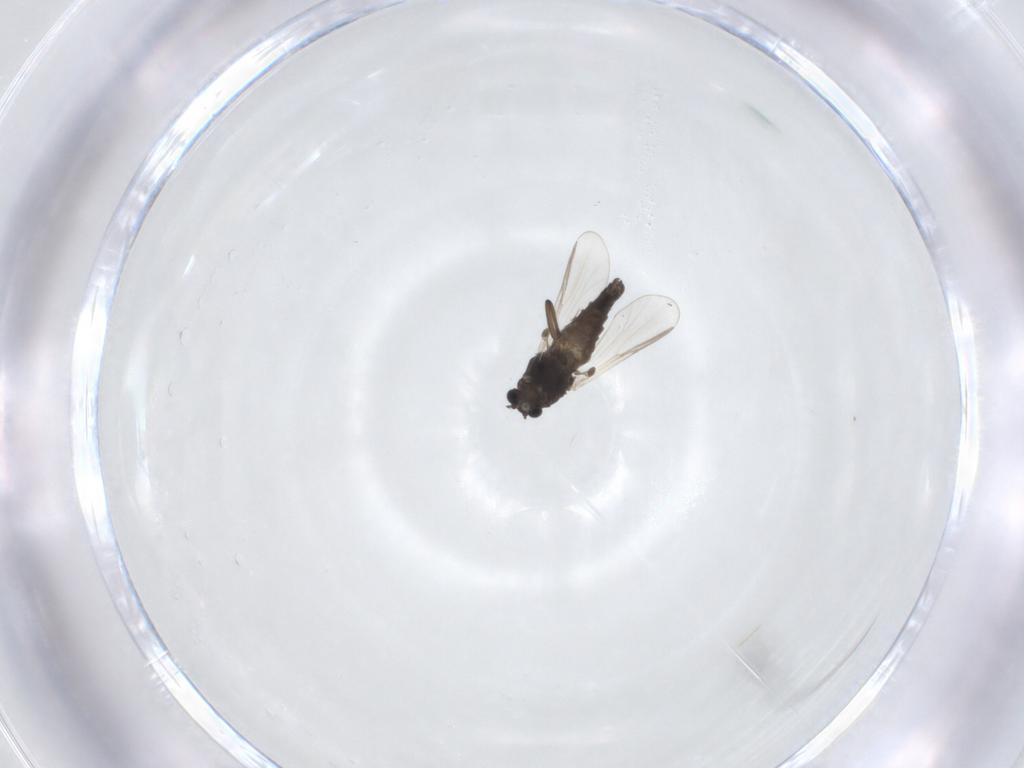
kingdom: Animalia
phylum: Arthropoda
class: Insecta
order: Diptera
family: Chironomidae
